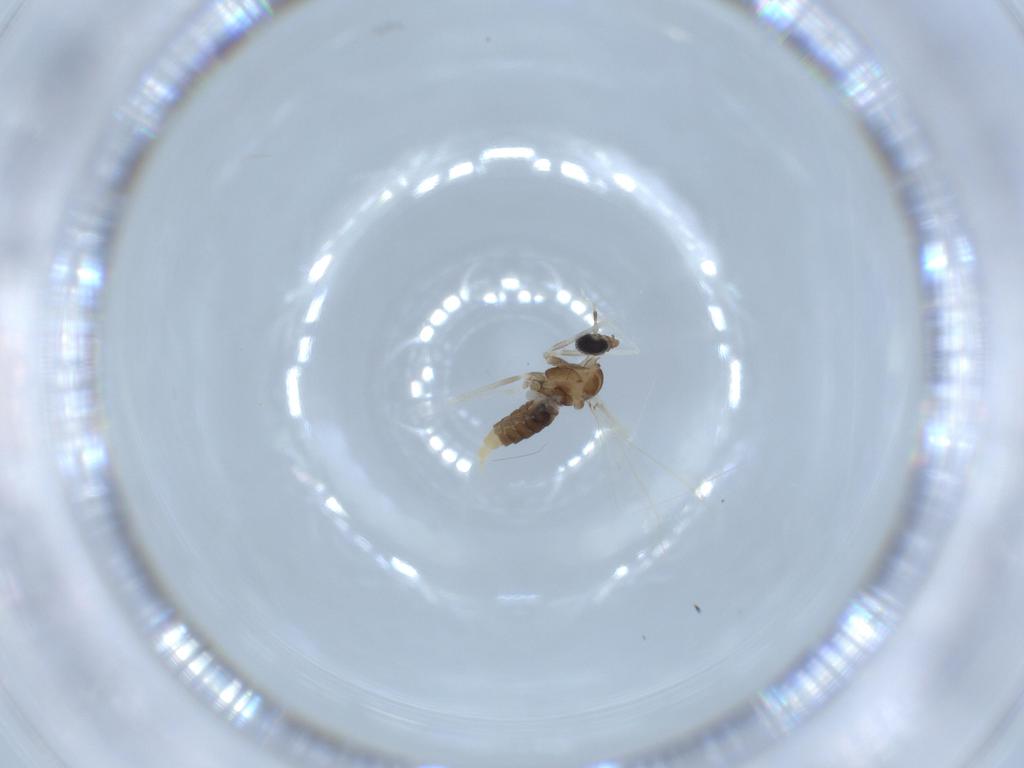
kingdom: Animalia
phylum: Arthropoda
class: Insecta
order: Diptera
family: Cecidomyiidae
